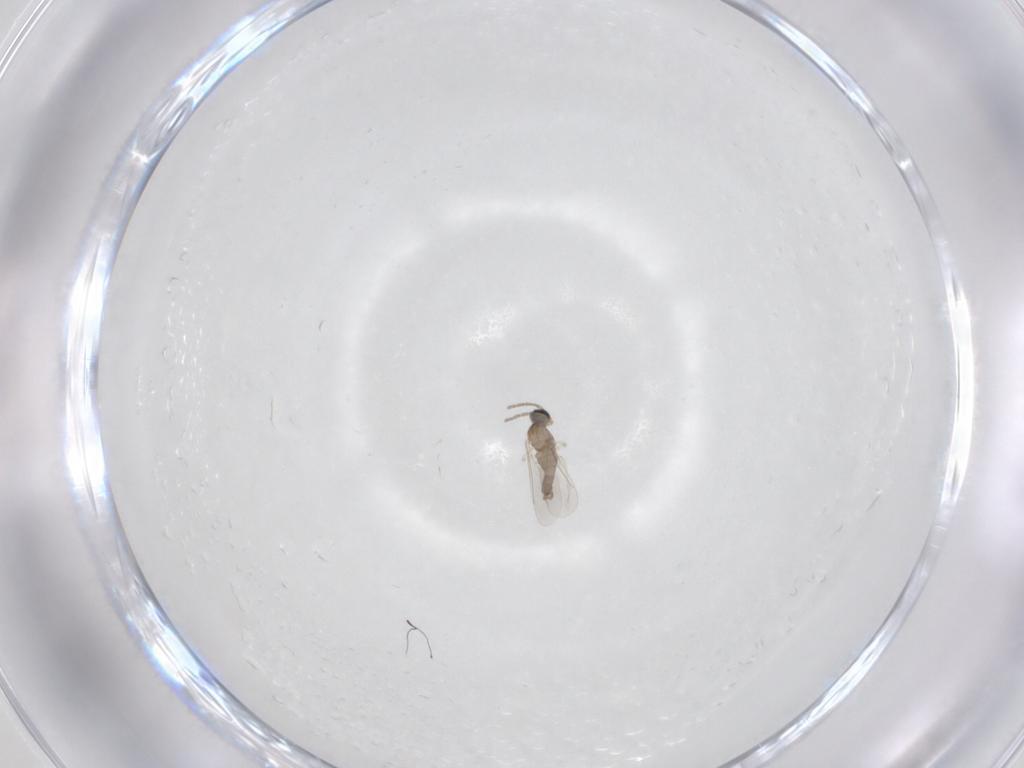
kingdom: Animalia
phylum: Arthropoda
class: Insecta
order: Diptera
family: Cecidomyiidae
